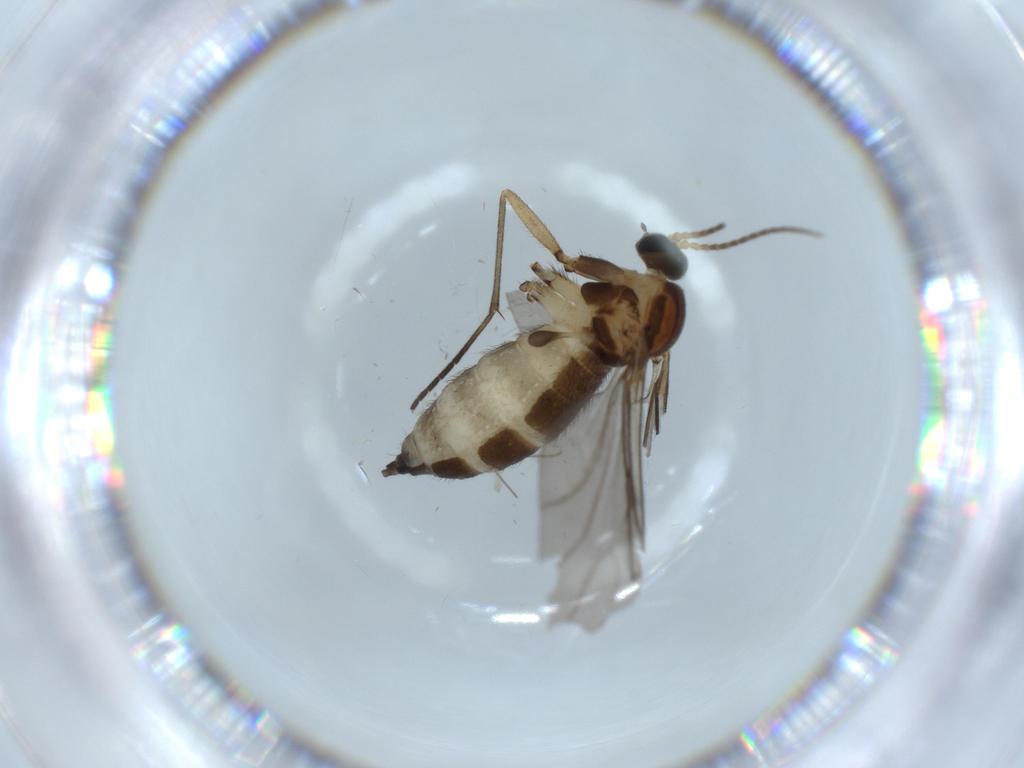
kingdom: Animalia
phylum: Arthropoda
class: Insecta
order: Diptera
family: Sciaridae
